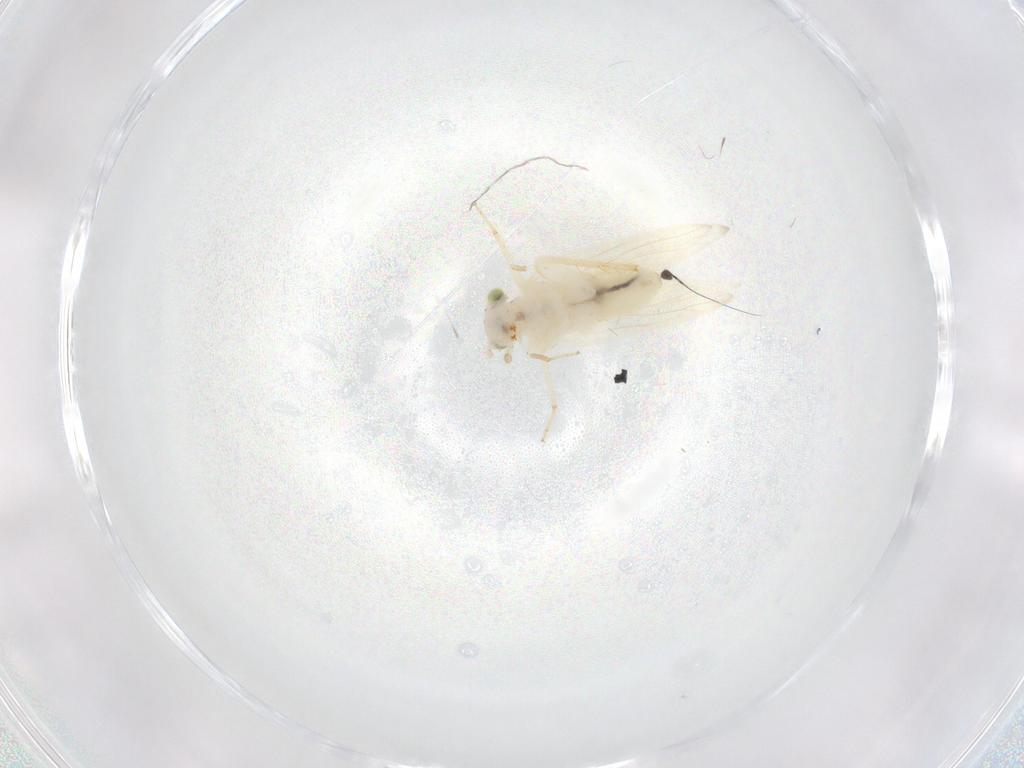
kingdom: Animalia
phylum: Arthropoda
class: Insecta
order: Psocodea
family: Lepidopsocidae
